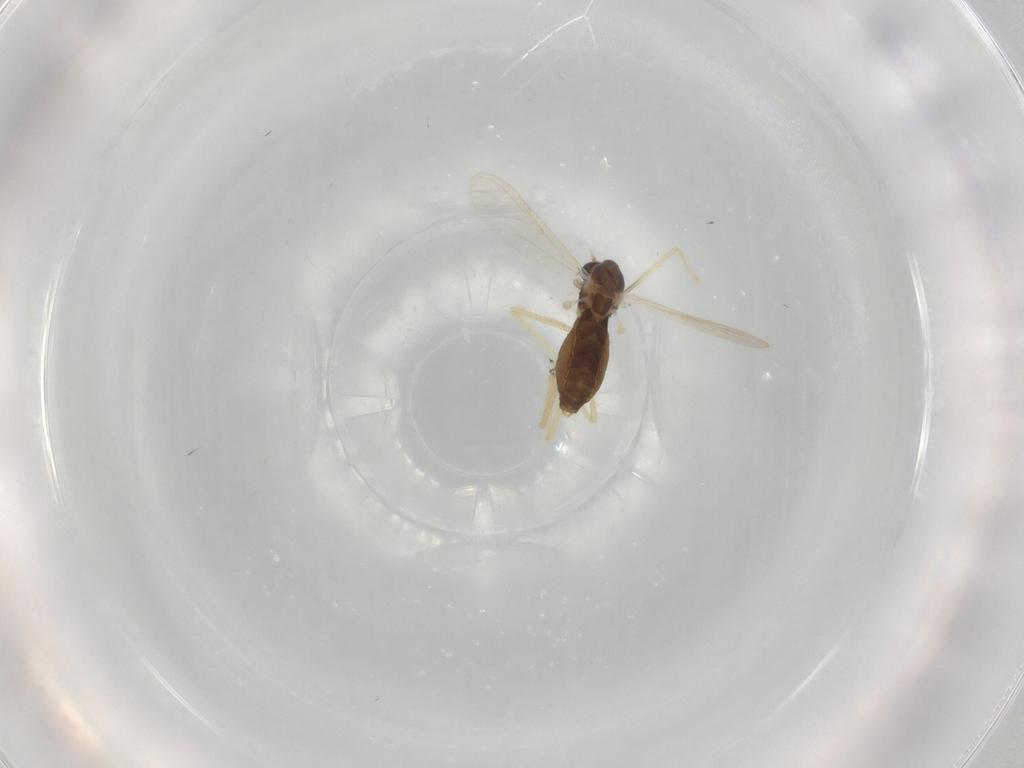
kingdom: Animalia
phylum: Arthropoda
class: Insecta
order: Diptera
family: Chironomidae
